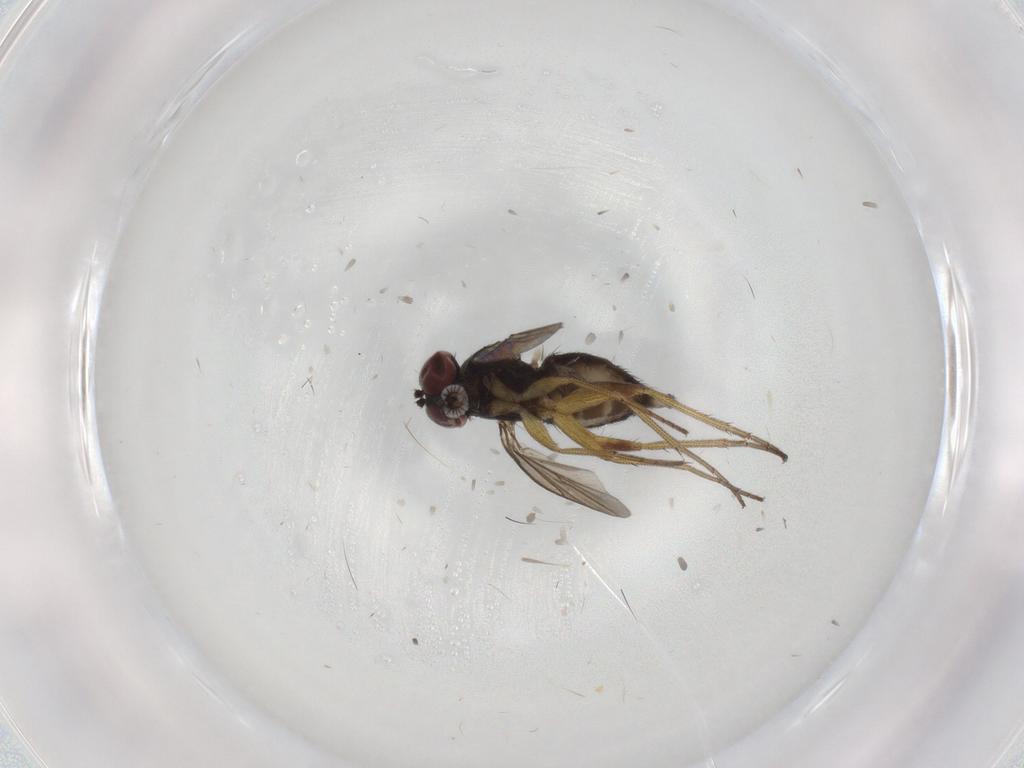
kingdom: Animalia
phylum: Arthropoda
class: Insecta
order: Diptera
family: Dolichopodidae
